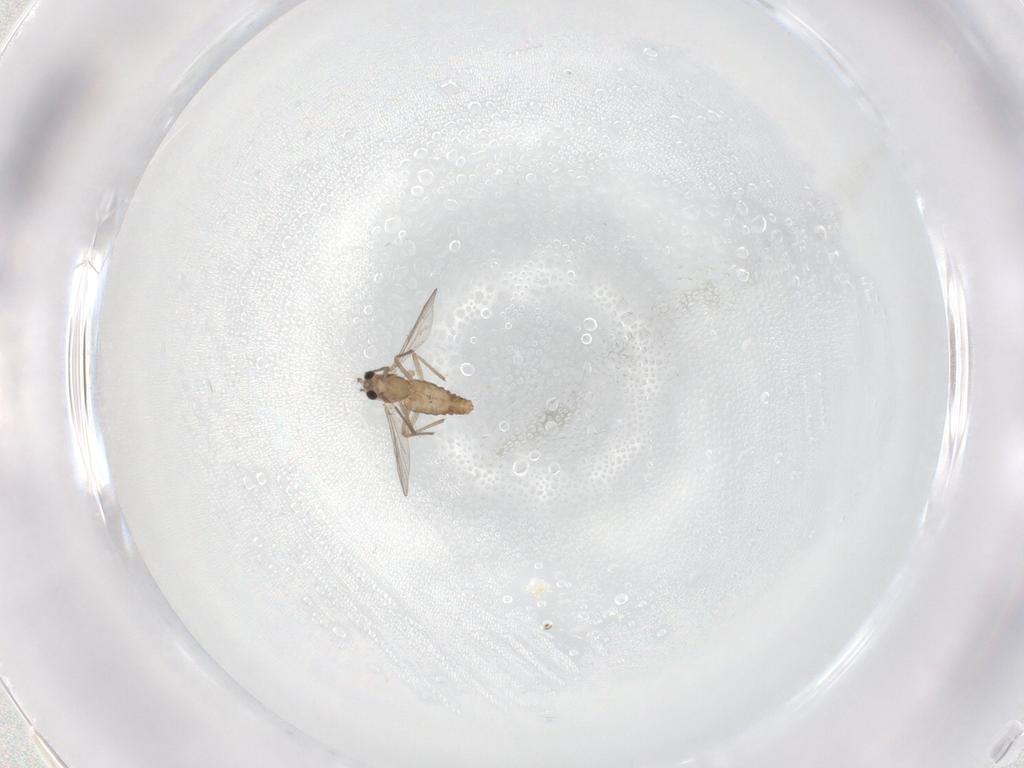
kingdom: Animalia
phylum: Arthropoda
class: Insecta
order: Diptera
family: Chironomidae
